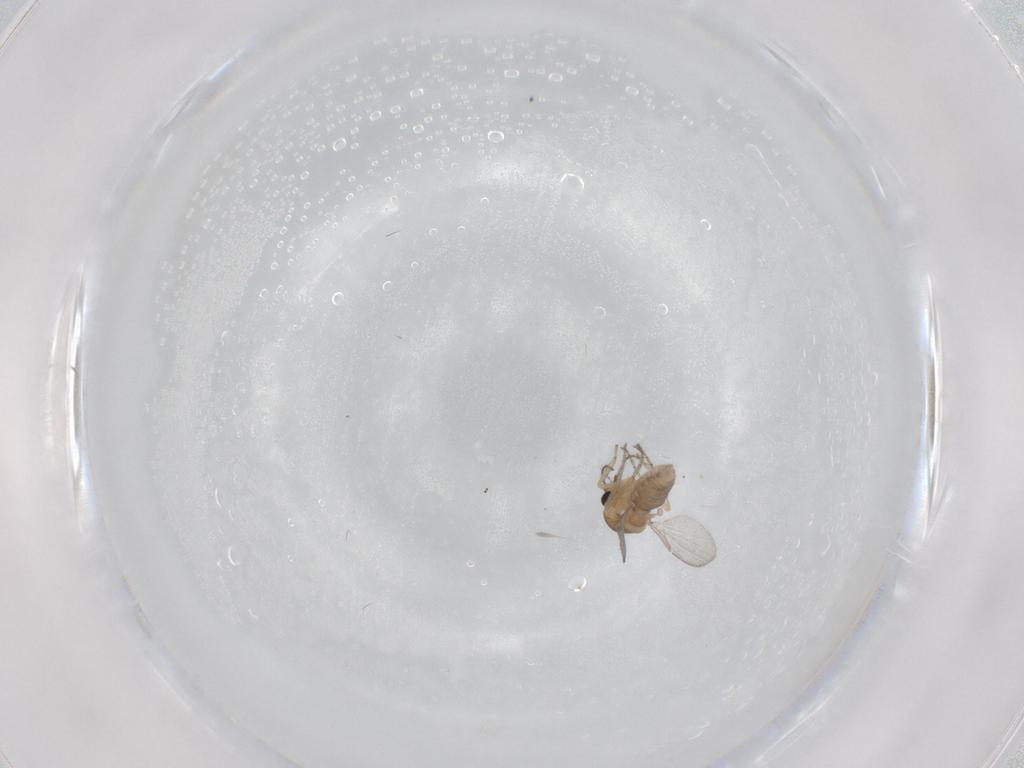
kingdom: Animalia
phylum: Arthropoda
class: Insecta
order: Diptera
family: Ceratopogonidae
